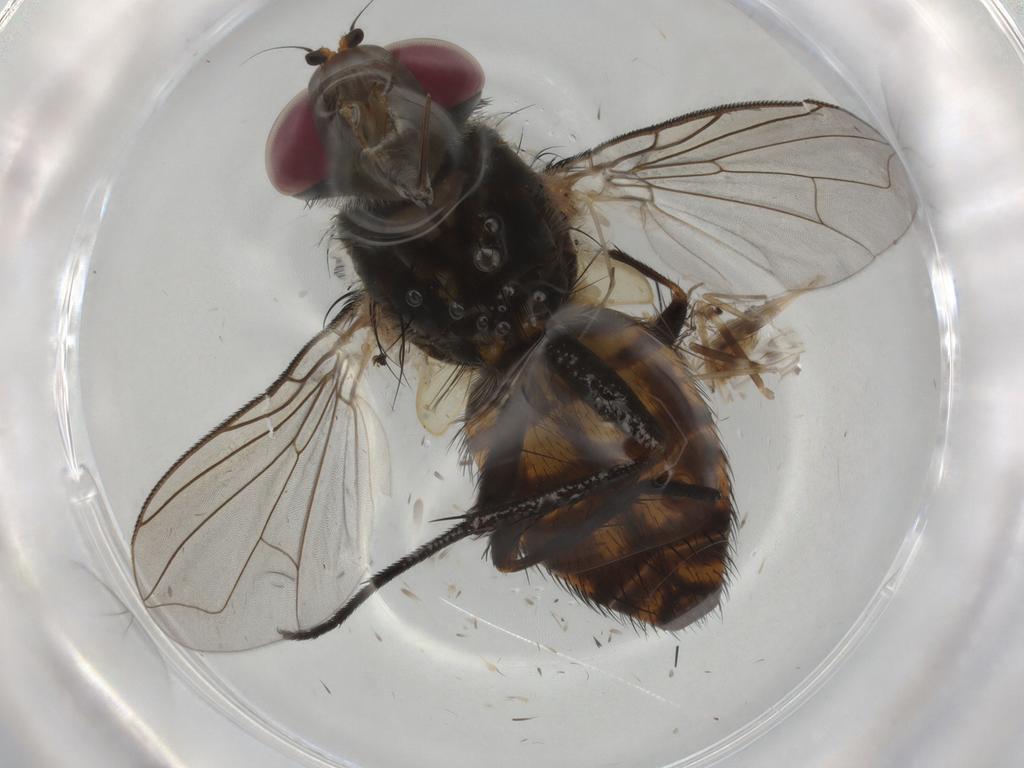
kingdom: Animalia
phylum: Arthropoda
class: Insecta
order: Diptera
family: Muscidae
